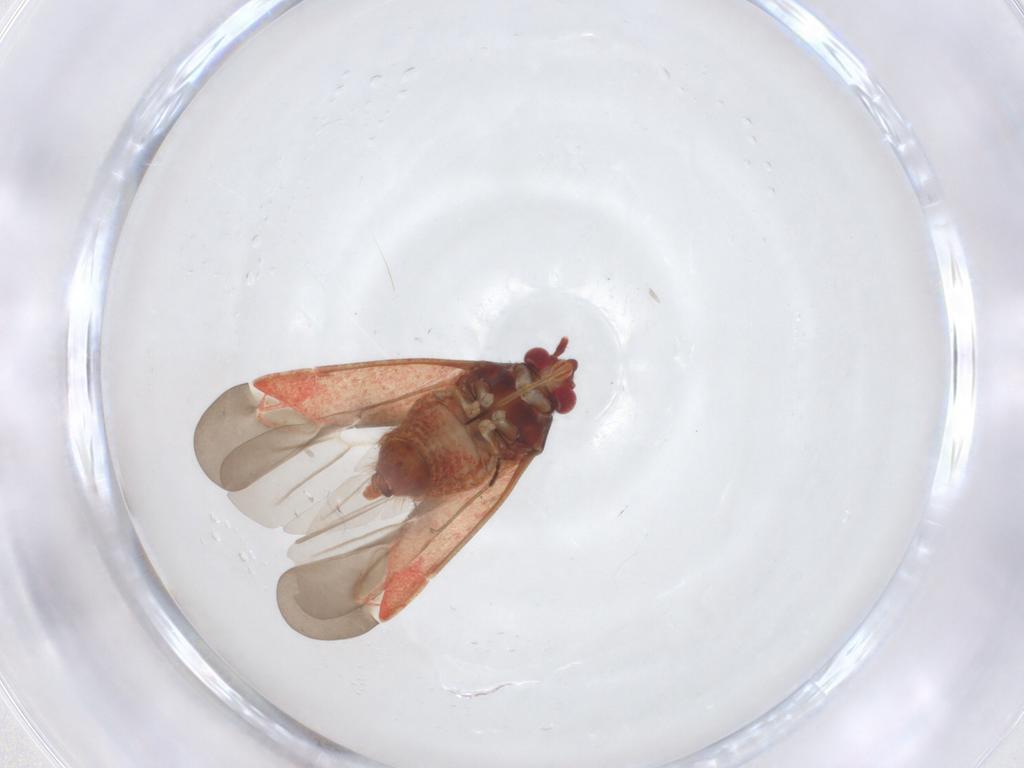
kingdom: Animalia
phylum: Arthropoda
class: Insecta
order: Hemiptera
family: Miridae
